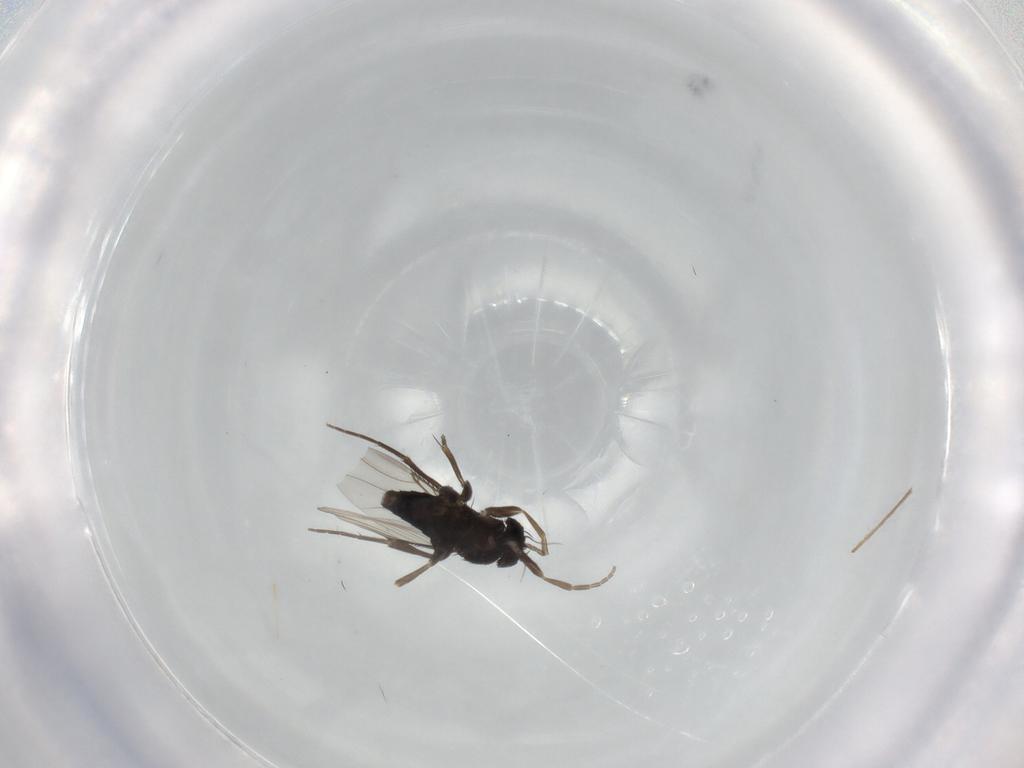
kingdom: Animalia
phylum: Arthropoda
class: Insecta
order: Diptera
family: Phoridae
